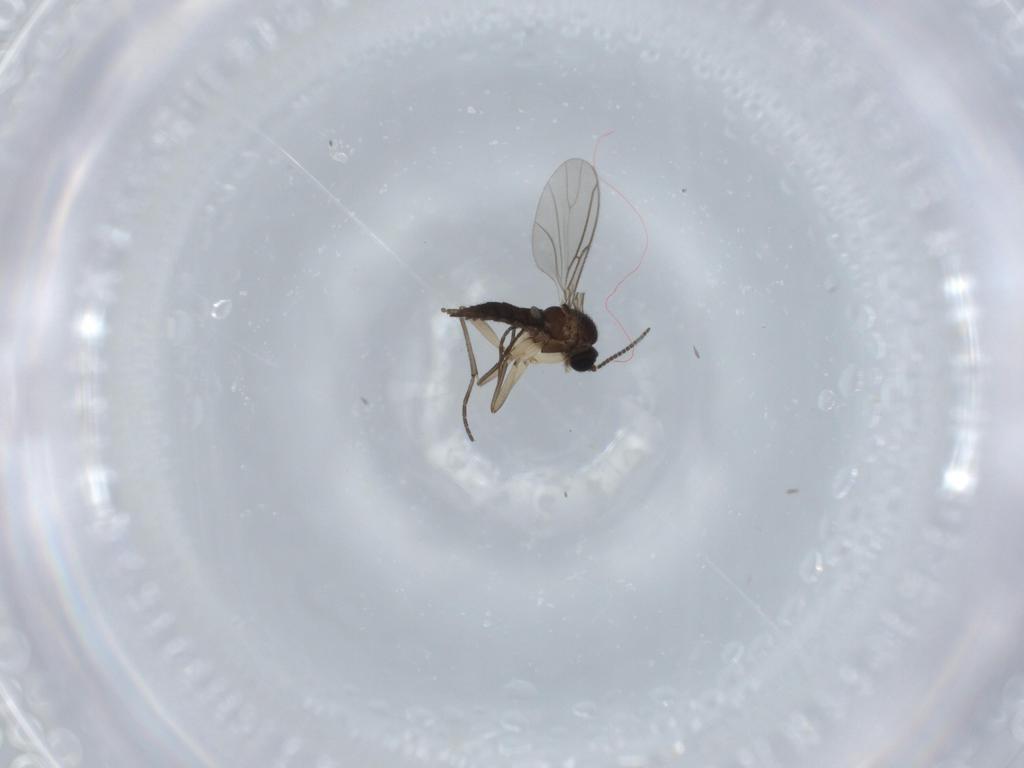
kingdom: Animalia
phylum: Arthropoda
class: Insecta
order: Diptera
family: Sciaridae
